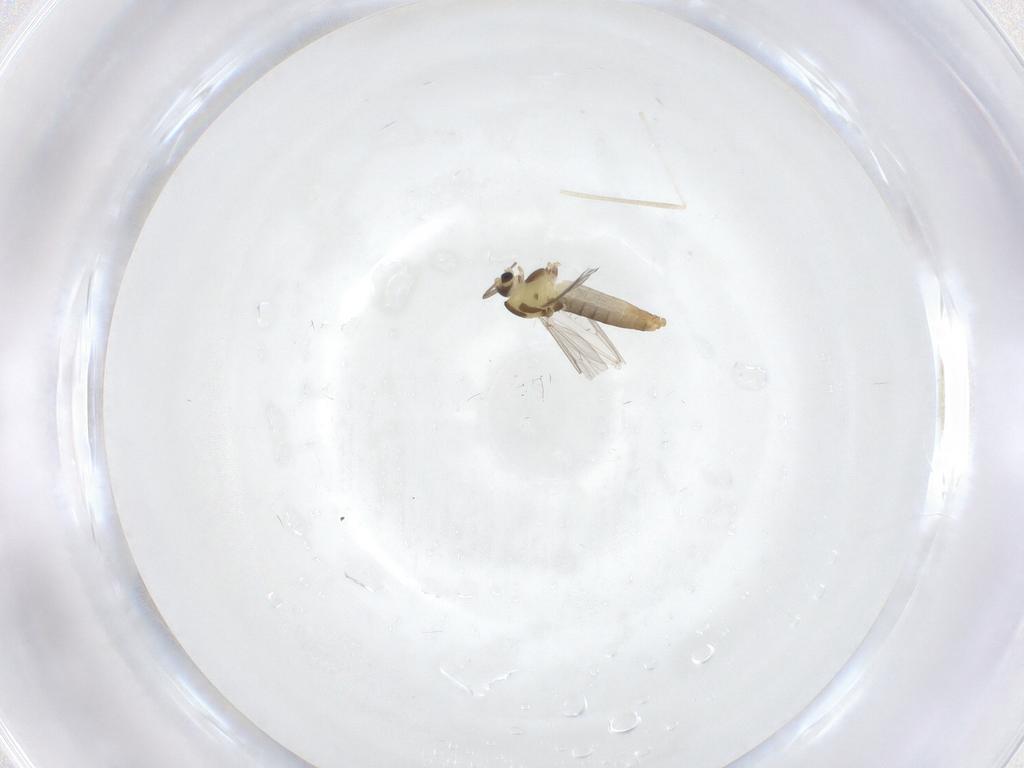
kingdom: Animalia
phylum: Arthropoda
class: Insecta
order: Diptera
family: Chironomidae
